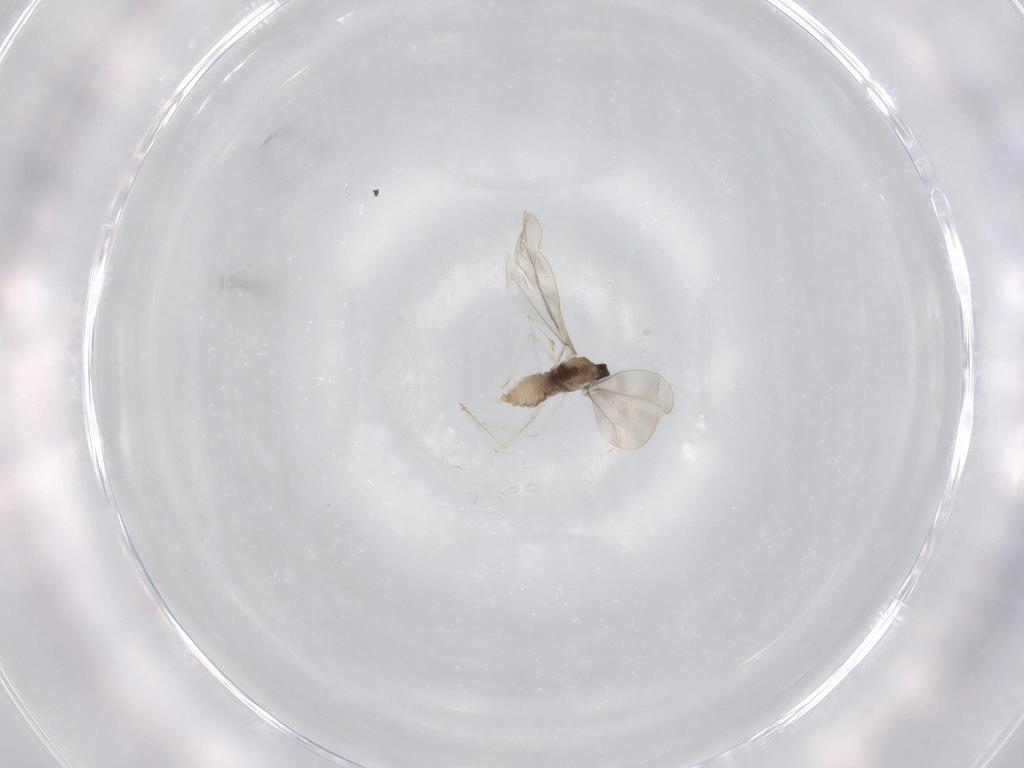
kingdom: Animalia
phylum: Arthropoda
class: Insecta
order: Diptera
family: Cecidomyiidae
